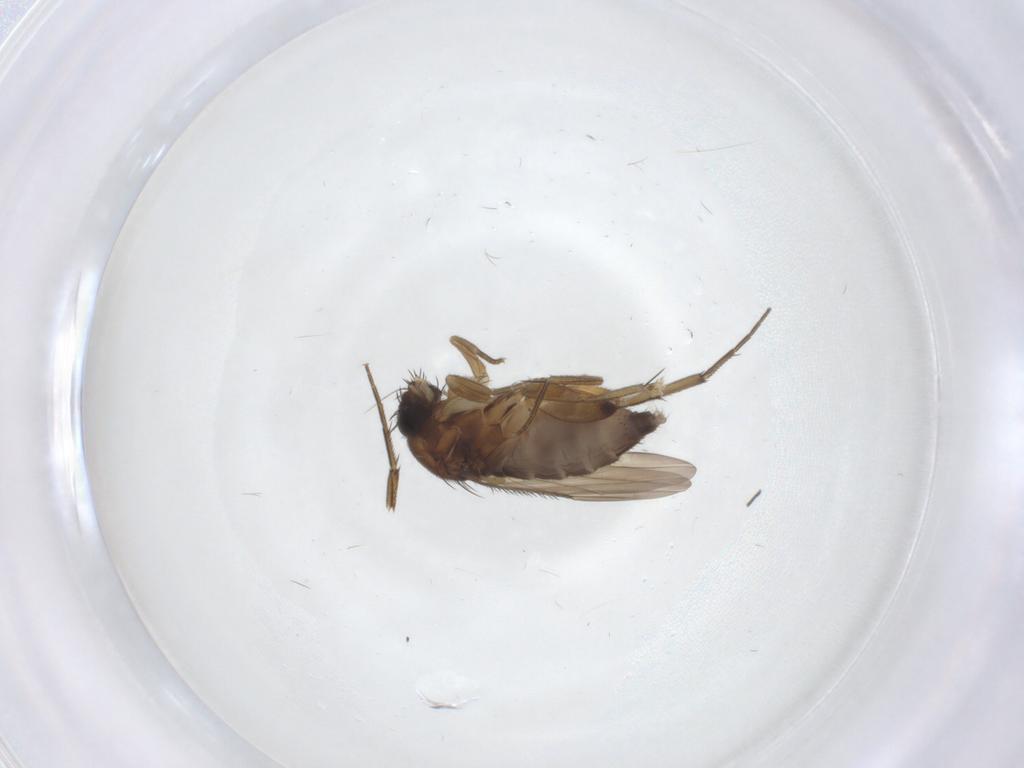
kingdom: Animalia
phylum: Arthropoda
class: Insecta
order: Diptera
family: Phoridae
